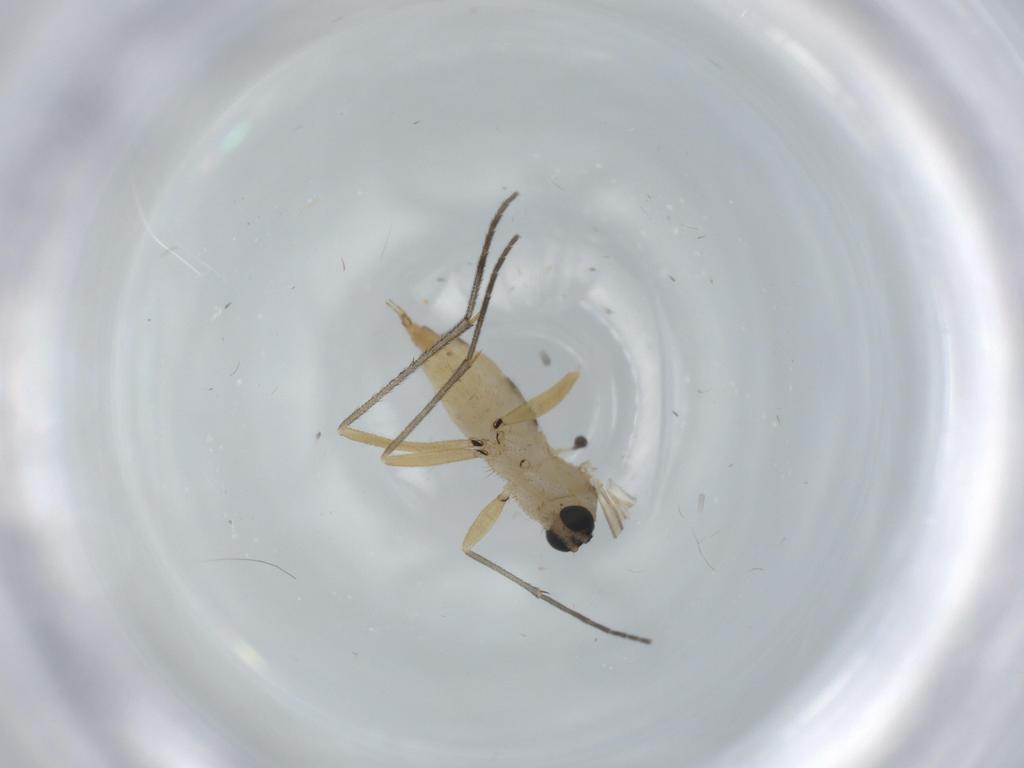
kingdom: Animalia
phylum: Arthropoda
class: Insecta
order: Diptera
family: Sciaridae
